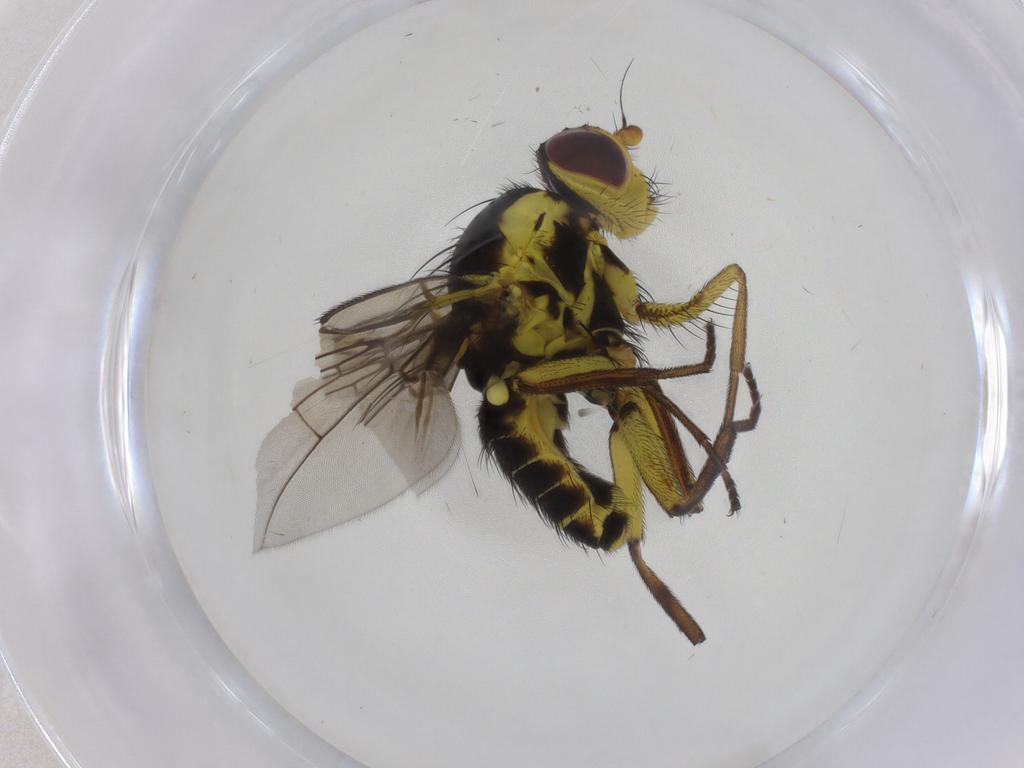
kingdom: Animalia
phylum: Arthropoda
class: Insecta
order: Diptera
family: Agromyzidae
